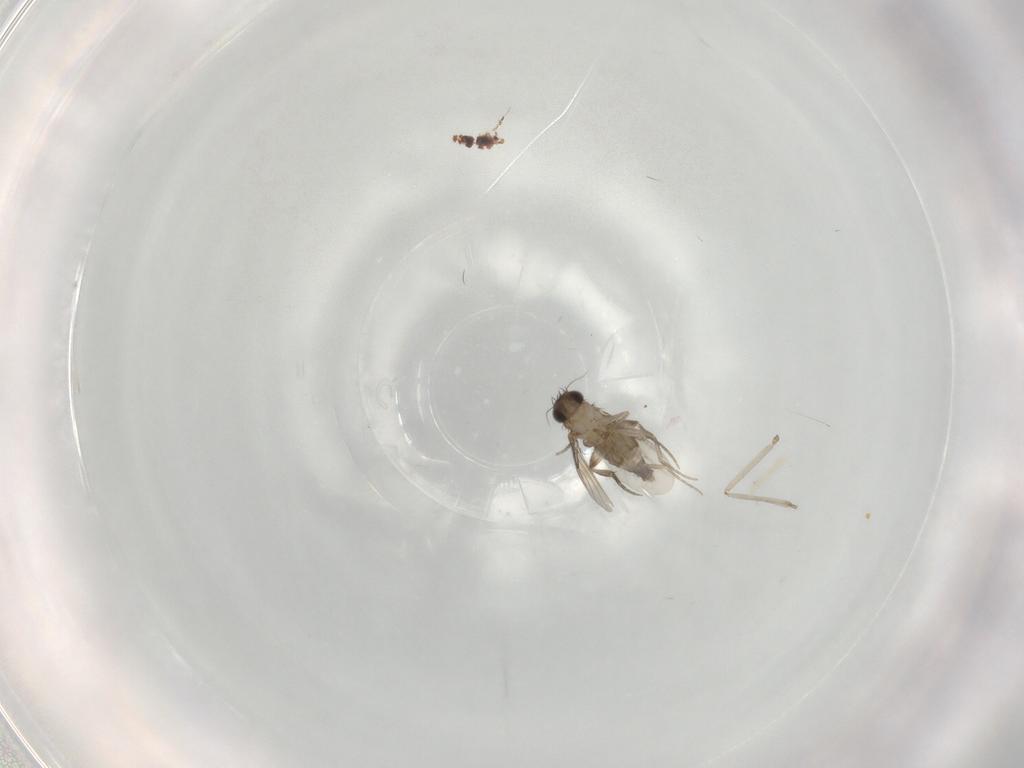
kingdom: Animalia
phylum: Arthropoda
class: Insecta
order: Diptera
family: Phoridae
